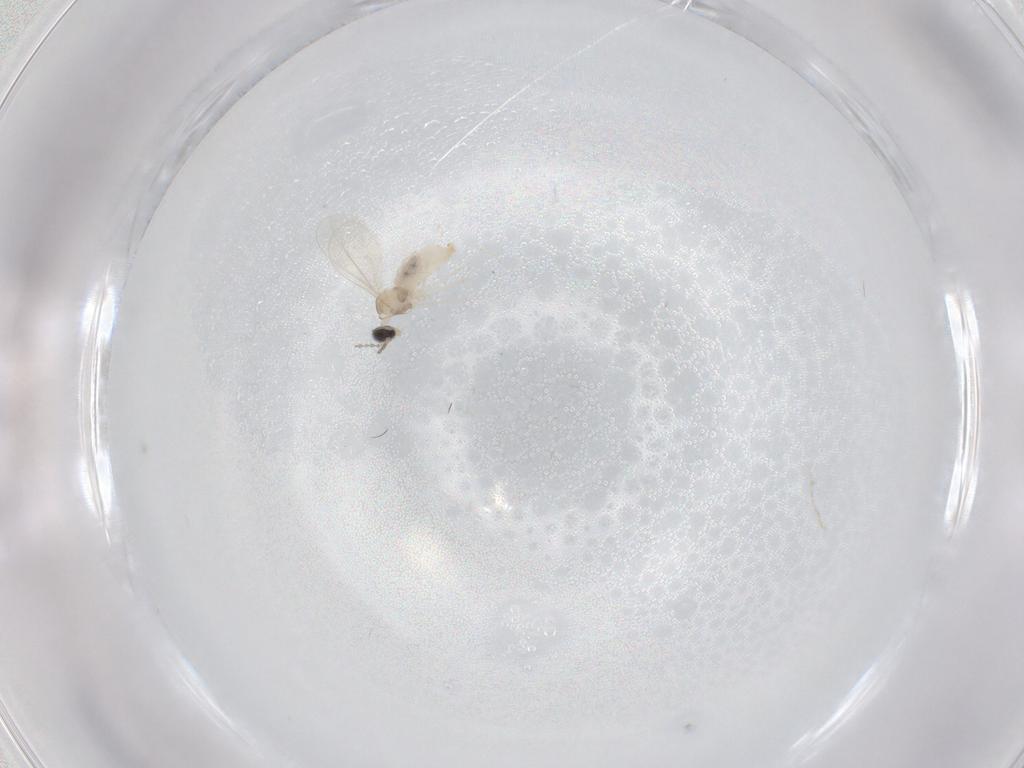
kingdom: Animalia
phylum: Arthropoda
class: Insecta
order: Diptera
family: Cecidomyiidae
